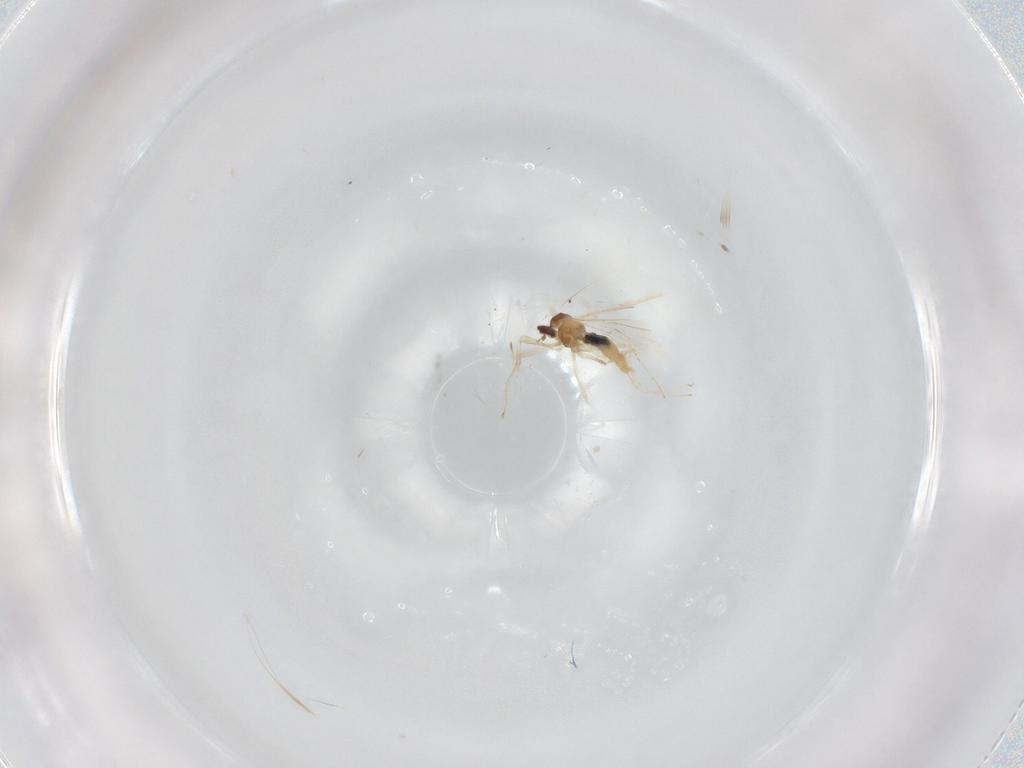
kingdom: Animalia
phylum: Arthropoda
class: Insecta
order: Diptera
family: Cecidomyiidae
